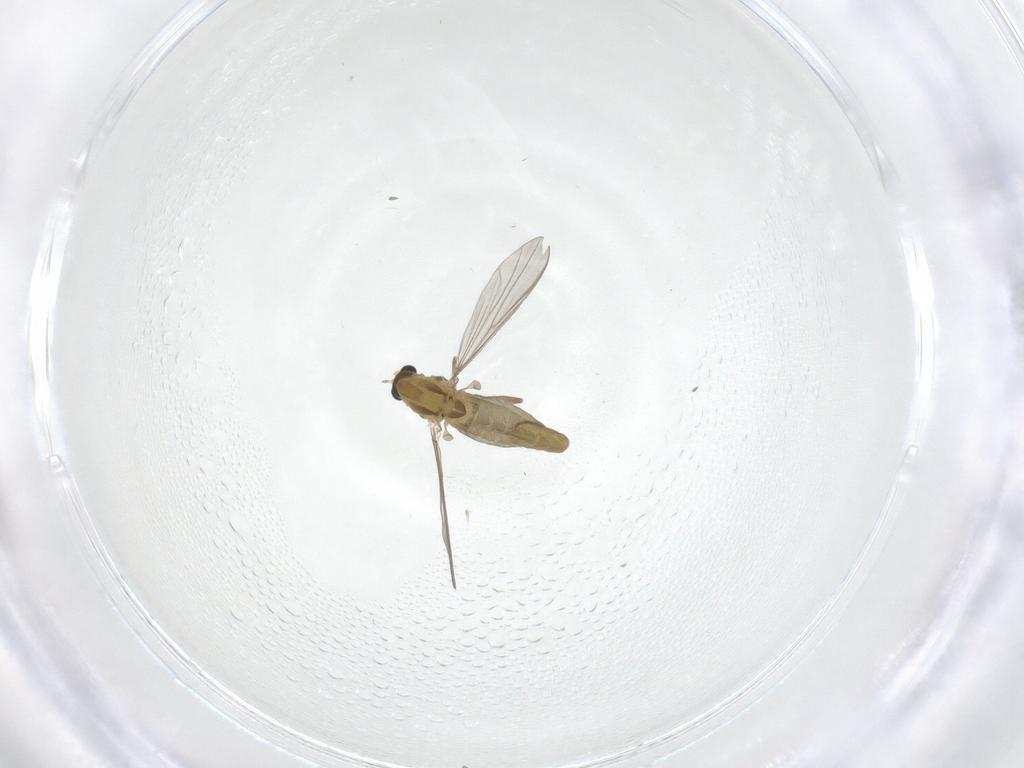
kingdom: Animalia
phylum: Arthropoda
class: Insecta
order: Diptera
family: Chironomidae
